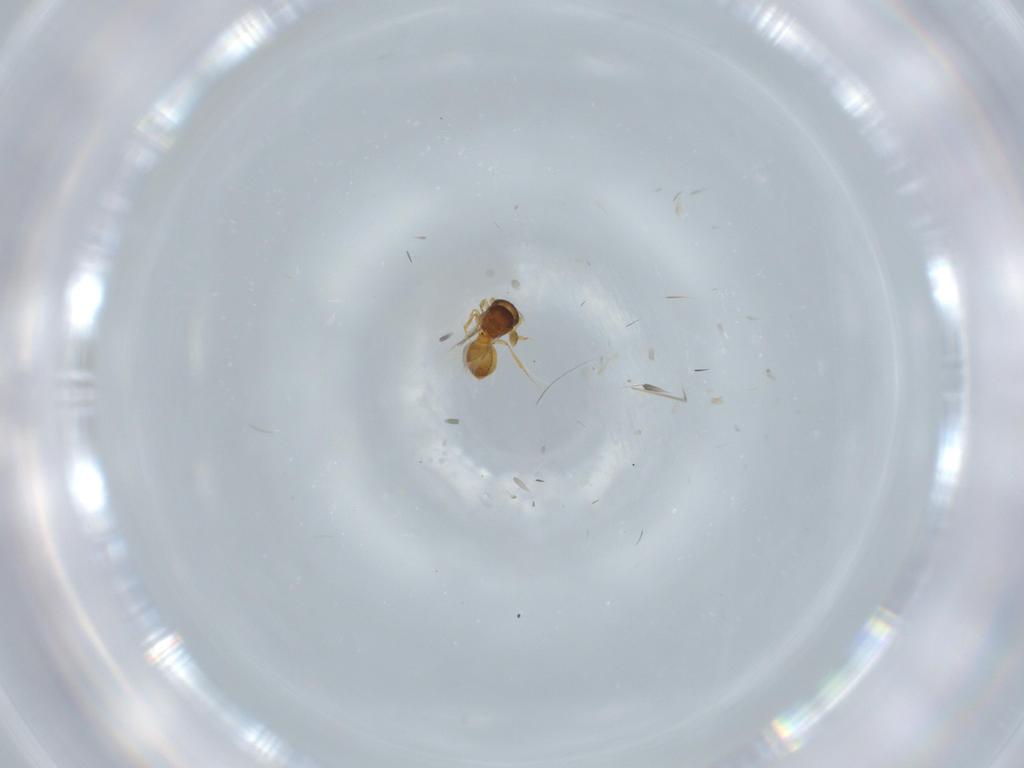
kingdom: Animalia
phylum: Arthropoda
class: Insecta
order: Hymenoptera
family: Scelionidae
